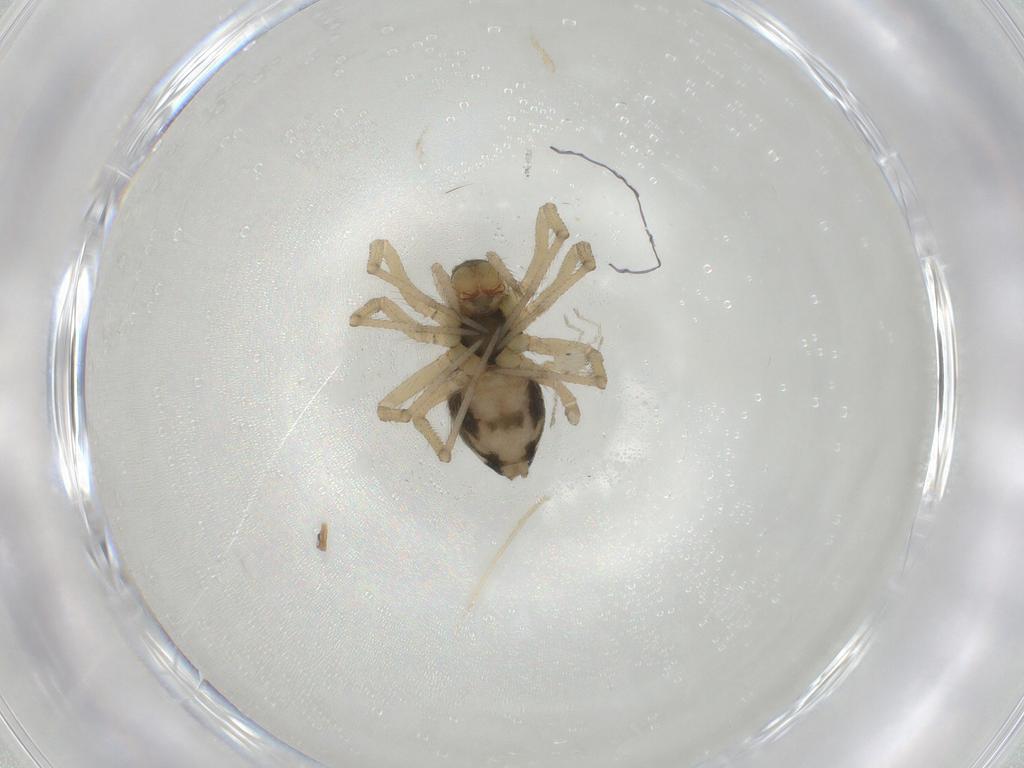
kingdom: Animalia
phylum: Arthropoda
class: Arachnida
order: Araneae
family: Linyphiidae
